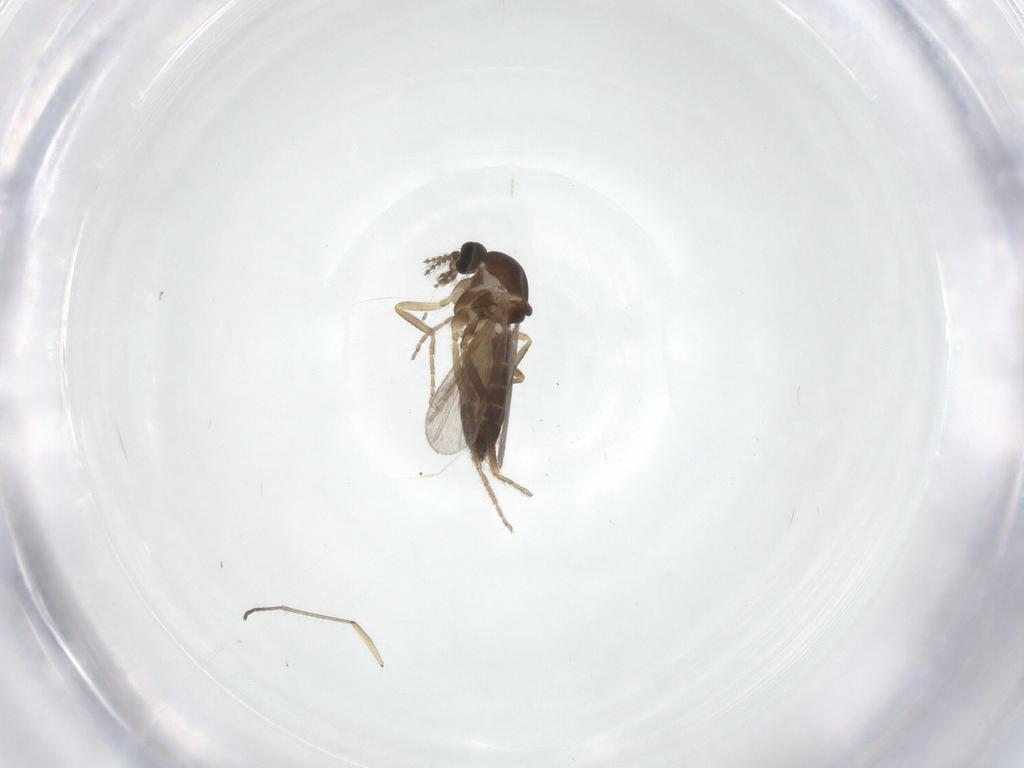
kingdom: Animalia
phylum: Arthropoda
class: Insecta
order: Diptera
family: Ceratopogonidae
